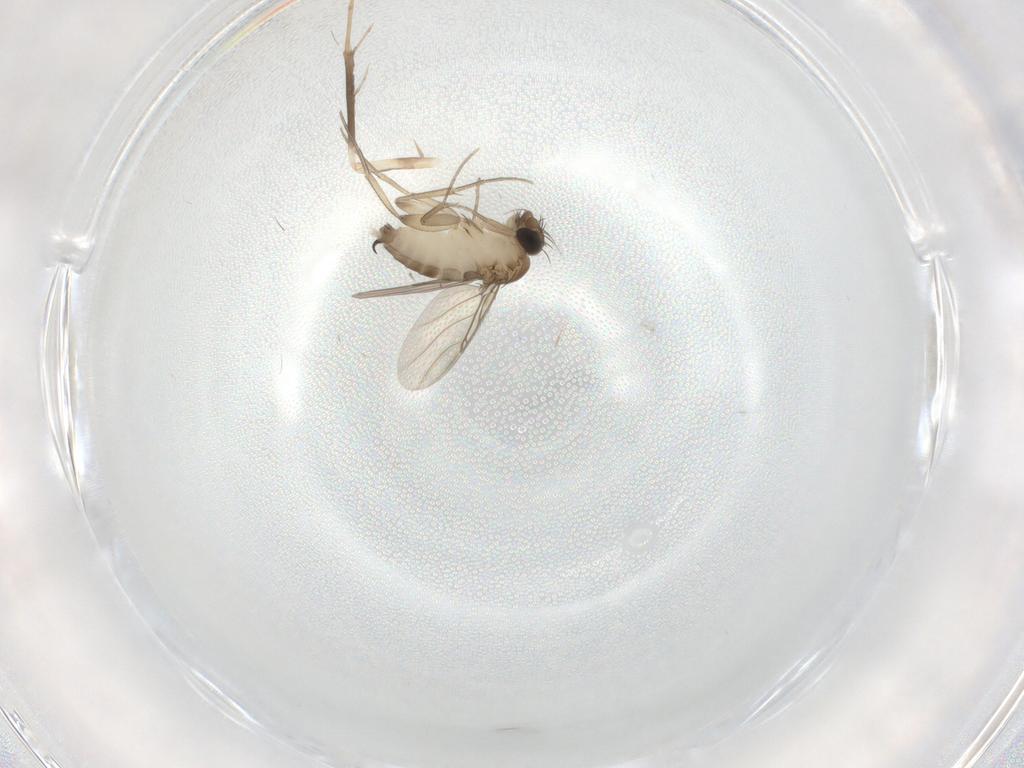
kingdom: Animalia
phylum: Arthropoda
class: Insecta
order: Diptera
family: Phoridae
